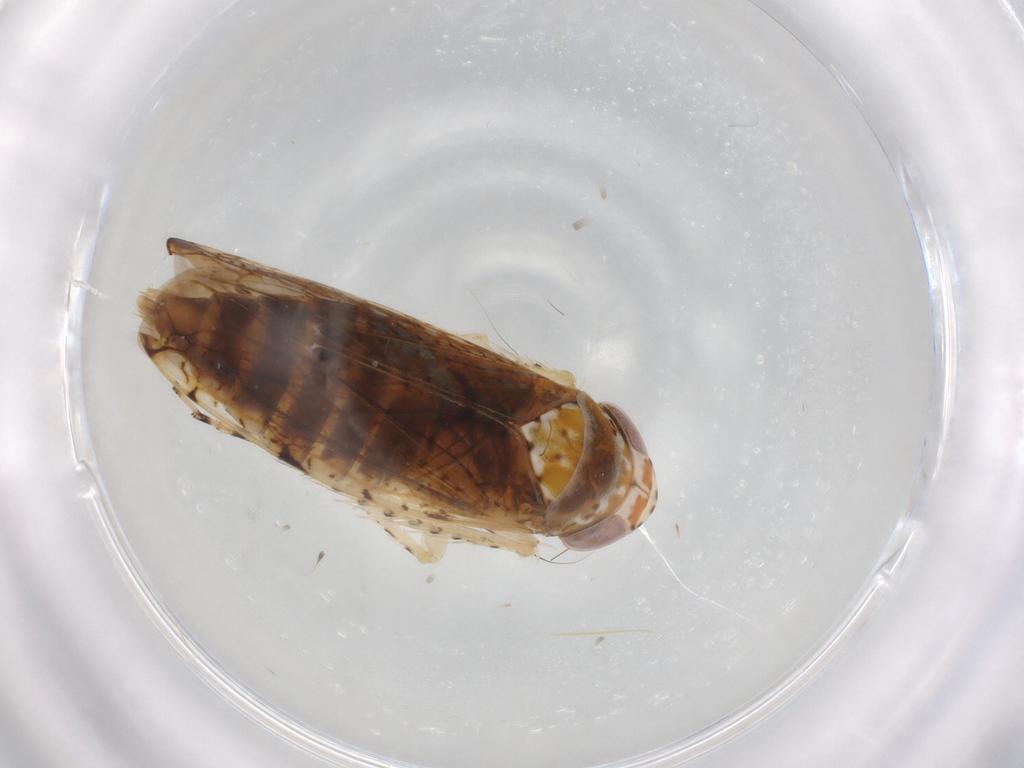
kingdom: Animalia
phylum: Arthropoda
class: Insecta
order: Hemiptera
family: Cicadellidae
